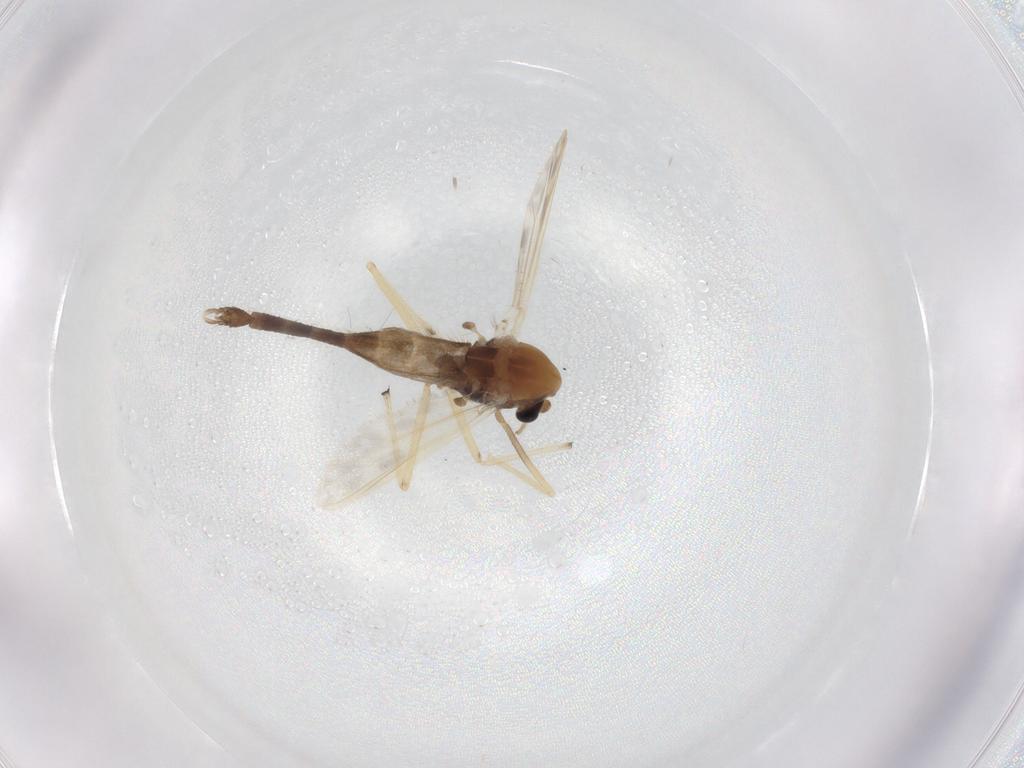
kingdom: Animalia
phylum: Arthropoda
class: Insecta
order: Diptera
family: Chironomidae
